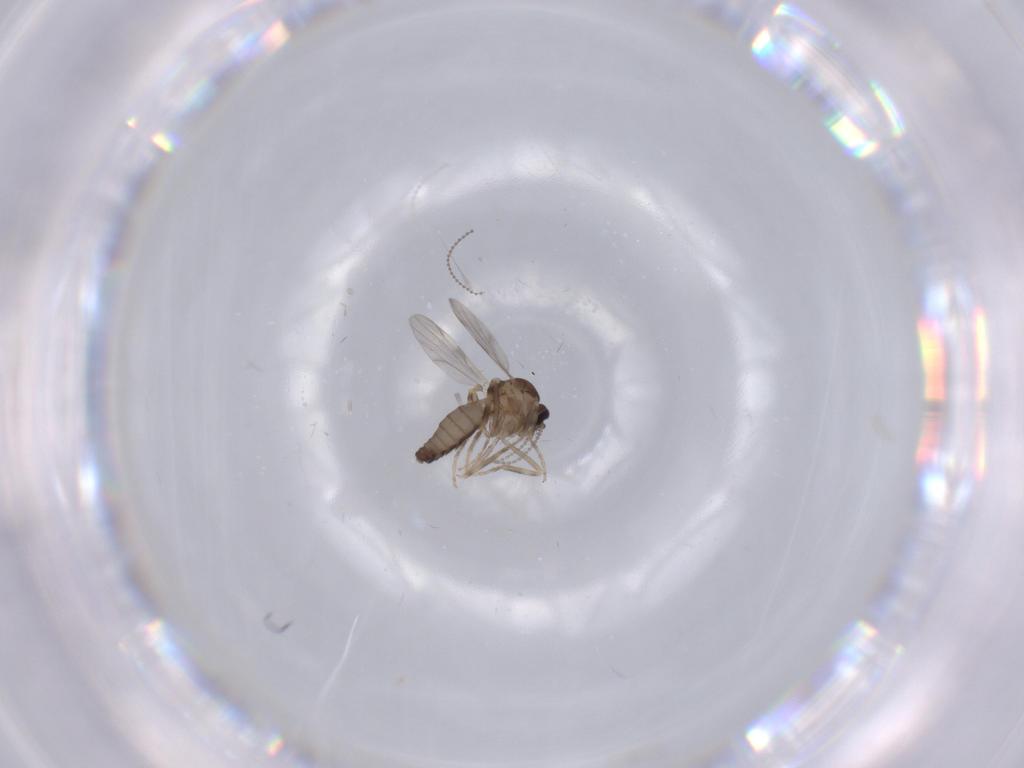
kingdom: Animalia
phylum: Arthropoda
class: Insecta
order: Diptera
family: Ceratopogonidae
